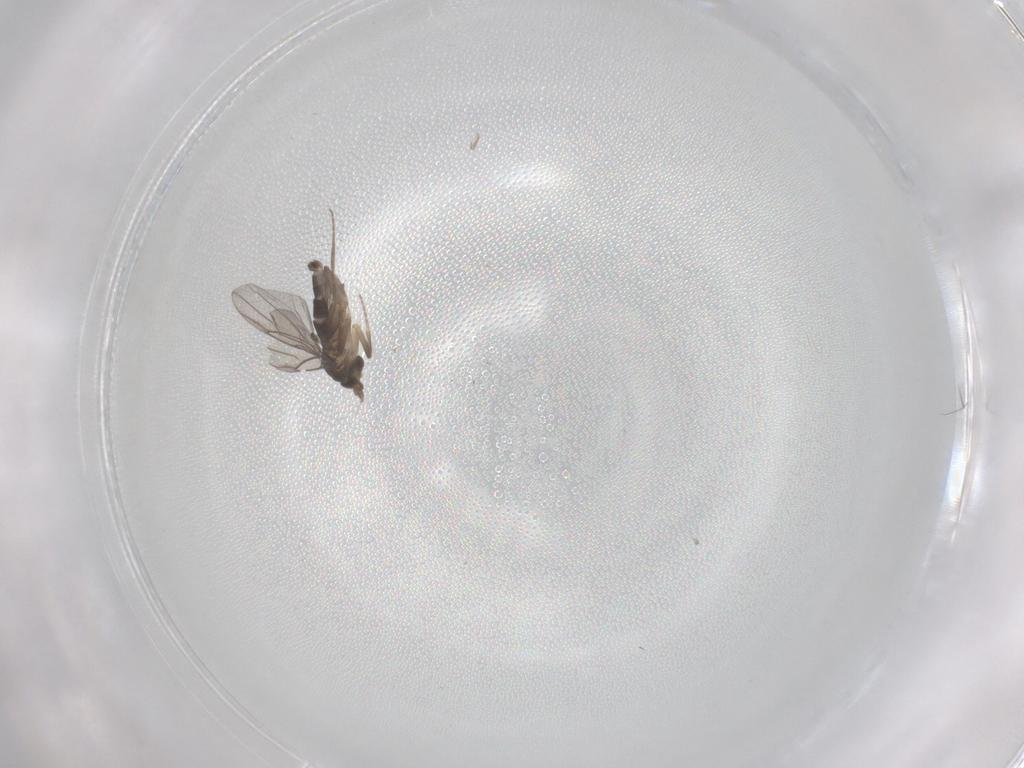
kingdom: Animalia
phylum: Arthropoda
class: Insecta
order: Diptera
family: Phoridae
